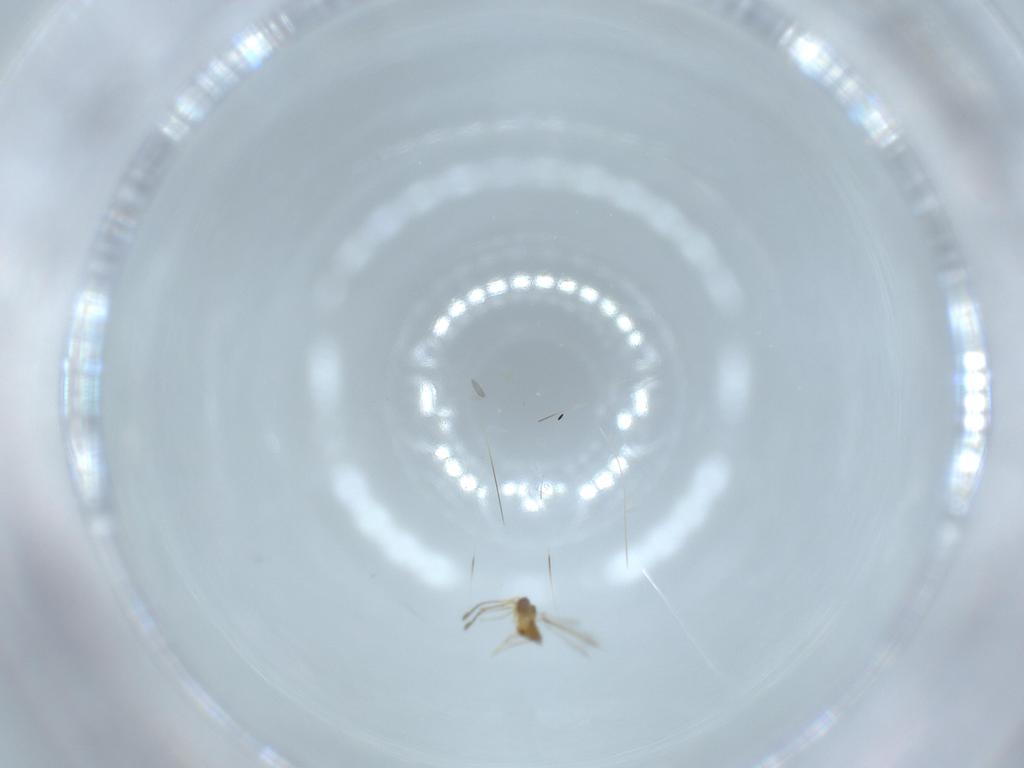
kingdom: Animalia
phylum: Arthropoda
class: Insecta
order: Hymenoptera
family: Mymaridae
